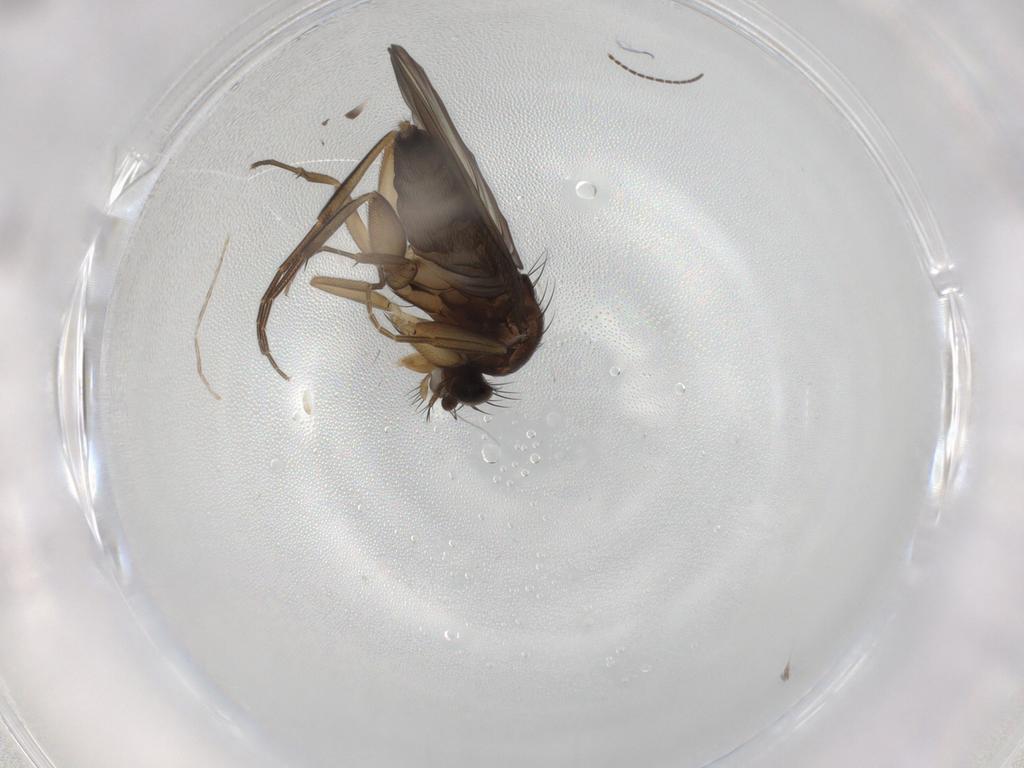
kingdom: Animalia
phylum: Arthropoda
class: Insecta
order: Diptera
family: Phoridae
